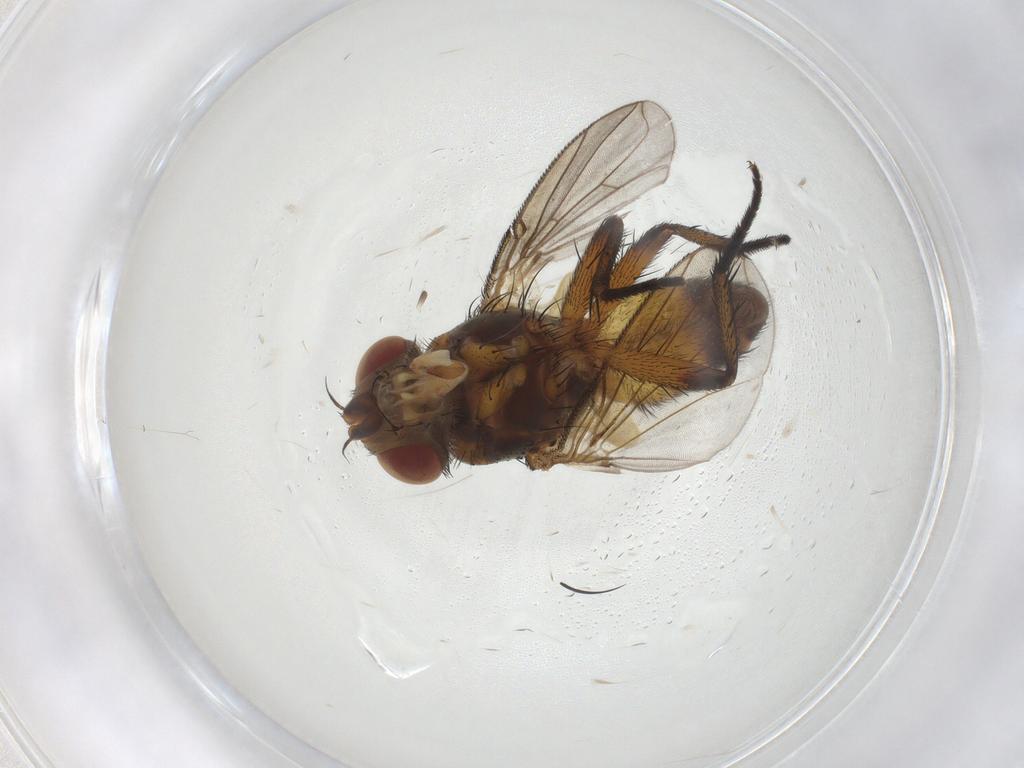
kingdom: Animalia
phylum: Arthropoda
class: Insecta
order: Diptera
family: Tachinidae
